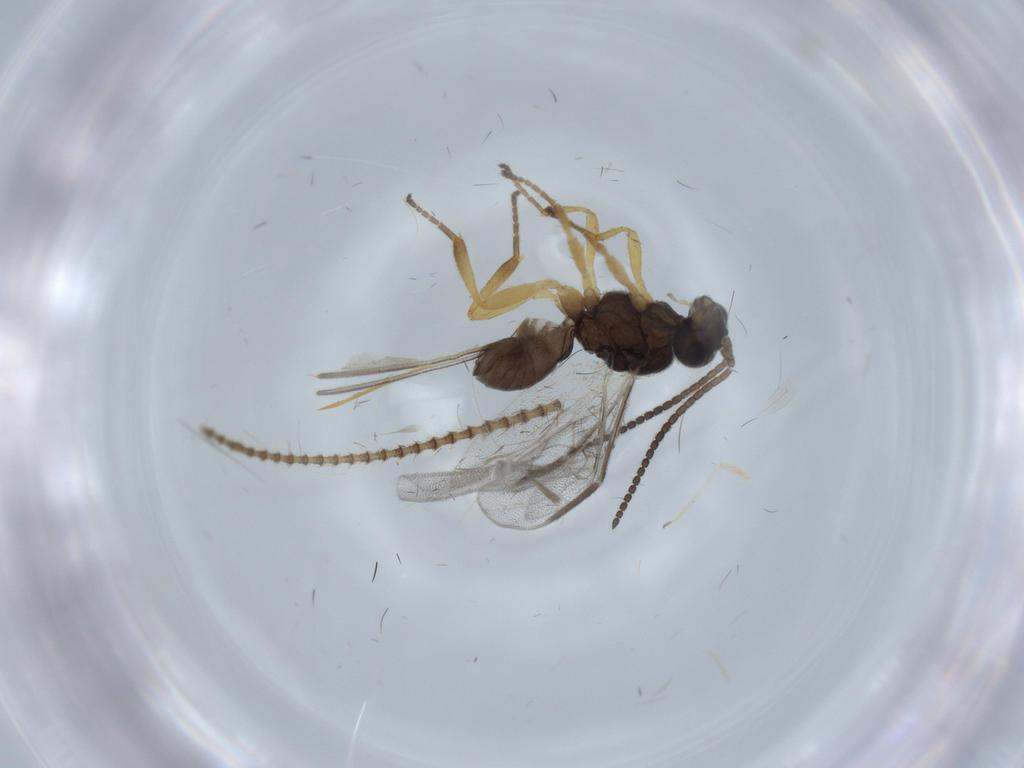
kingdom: Animalia
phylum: Arthropoda
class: Insecta
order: Hymenoptera
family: Braconidae
